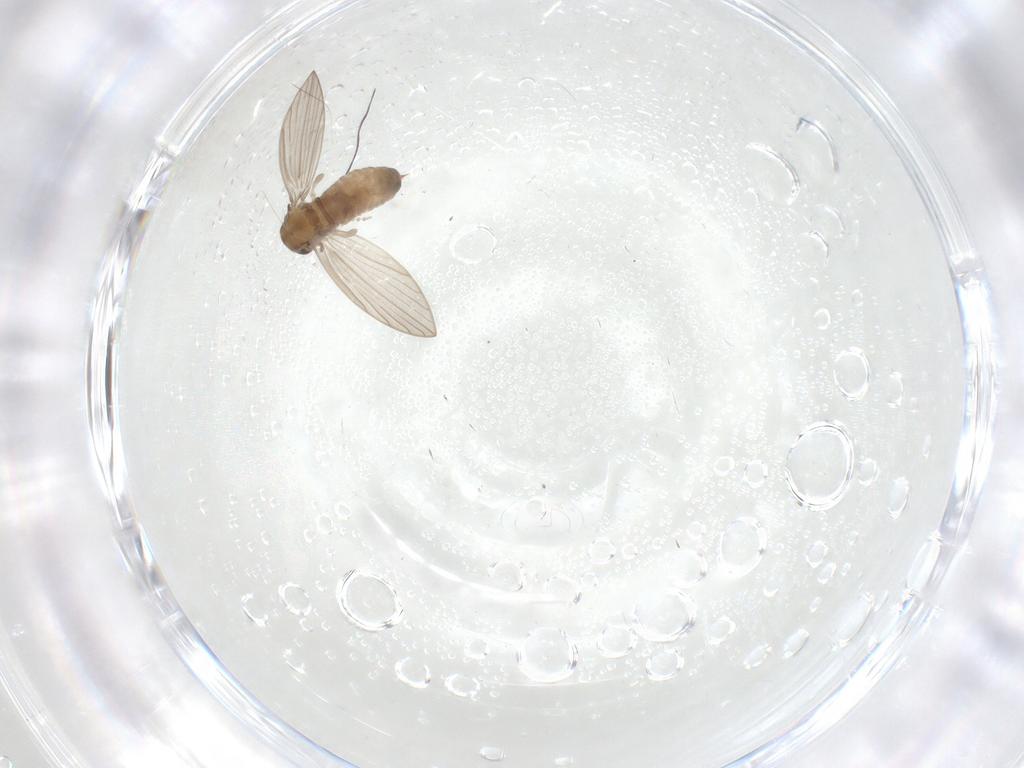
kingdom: Animalia
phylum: Arthropoda
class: Insecta
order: Diptera
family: Psychodidae
